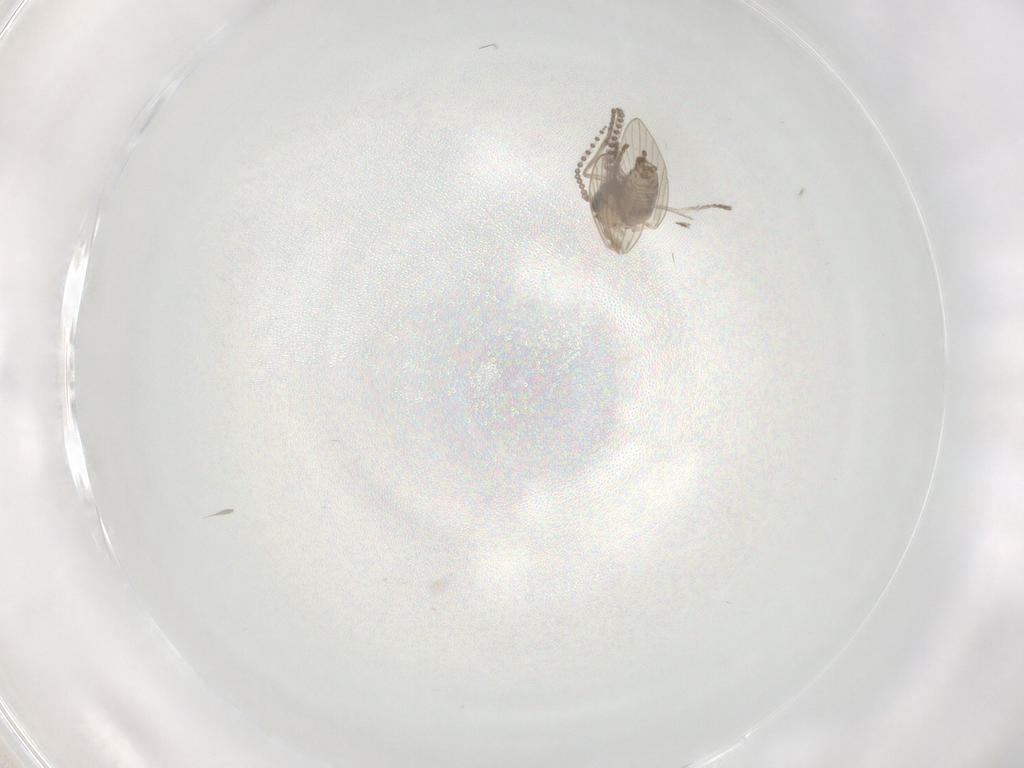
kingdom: Animalia
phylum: Arthropoda
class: Insecta
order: Diptera
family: Psychodidae
